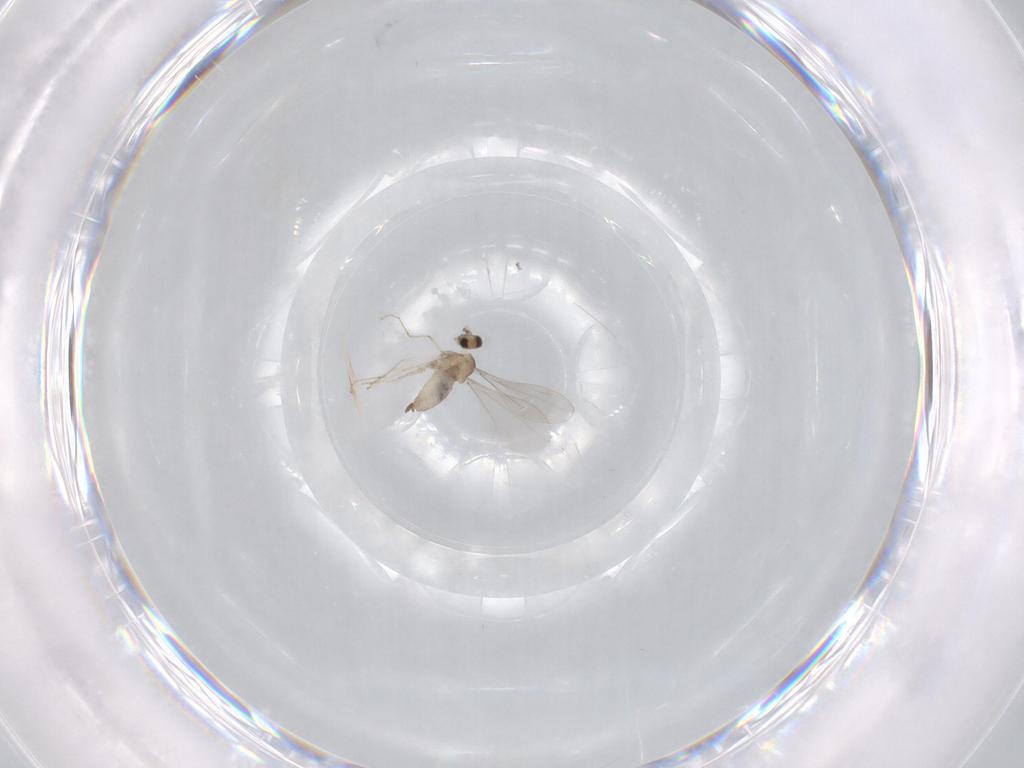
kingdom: Animalia
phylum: Arthropoda
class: Insecta
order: Diptera
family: Cecidomyiidae
